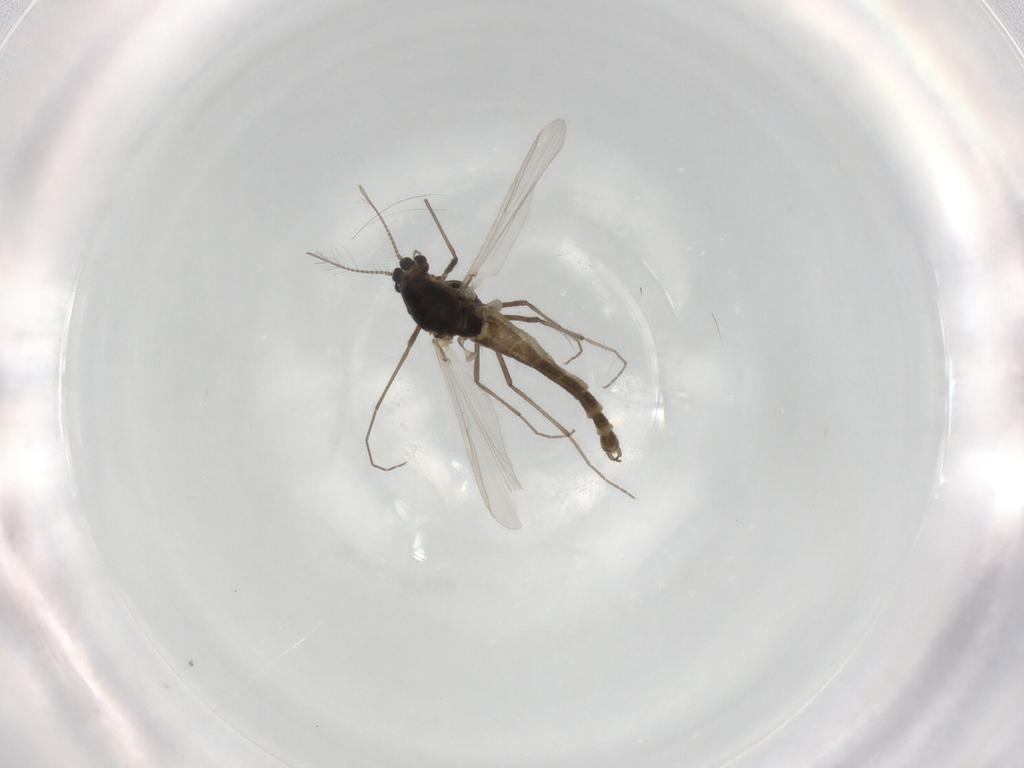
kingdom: Animalia
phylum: Arthropoda
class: Insecta
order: Diptera
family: Chironomidae
